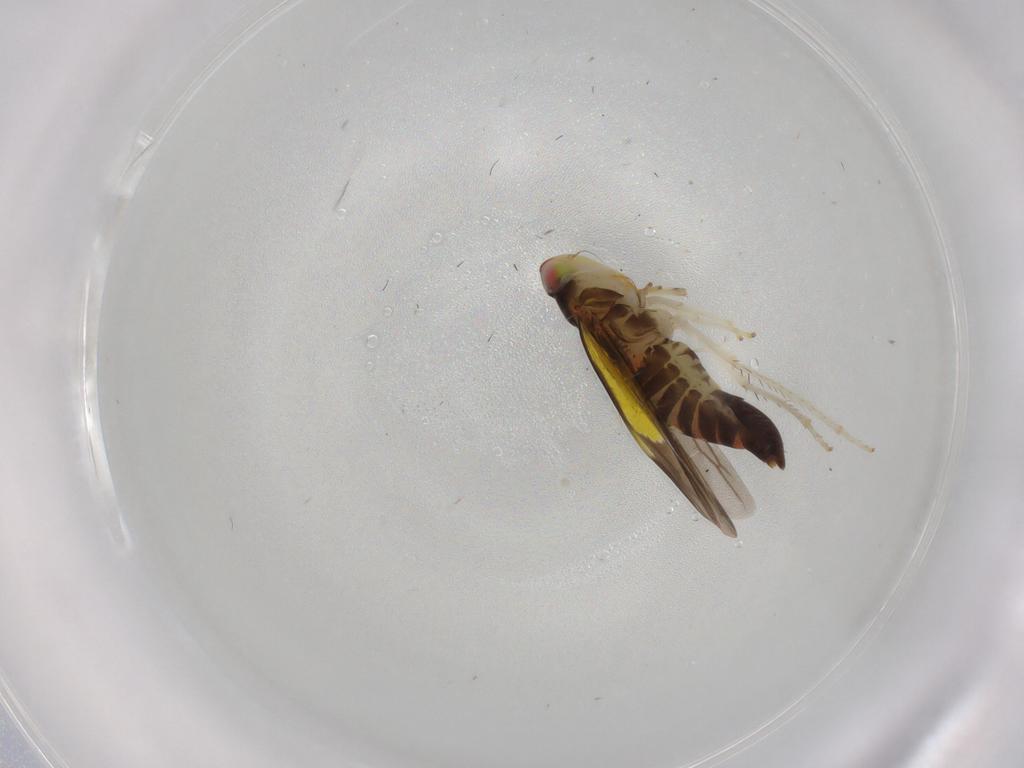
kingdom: Animalia
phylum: Arthropoda
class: Insecta
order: Hemiptera
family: Cicadellidae
